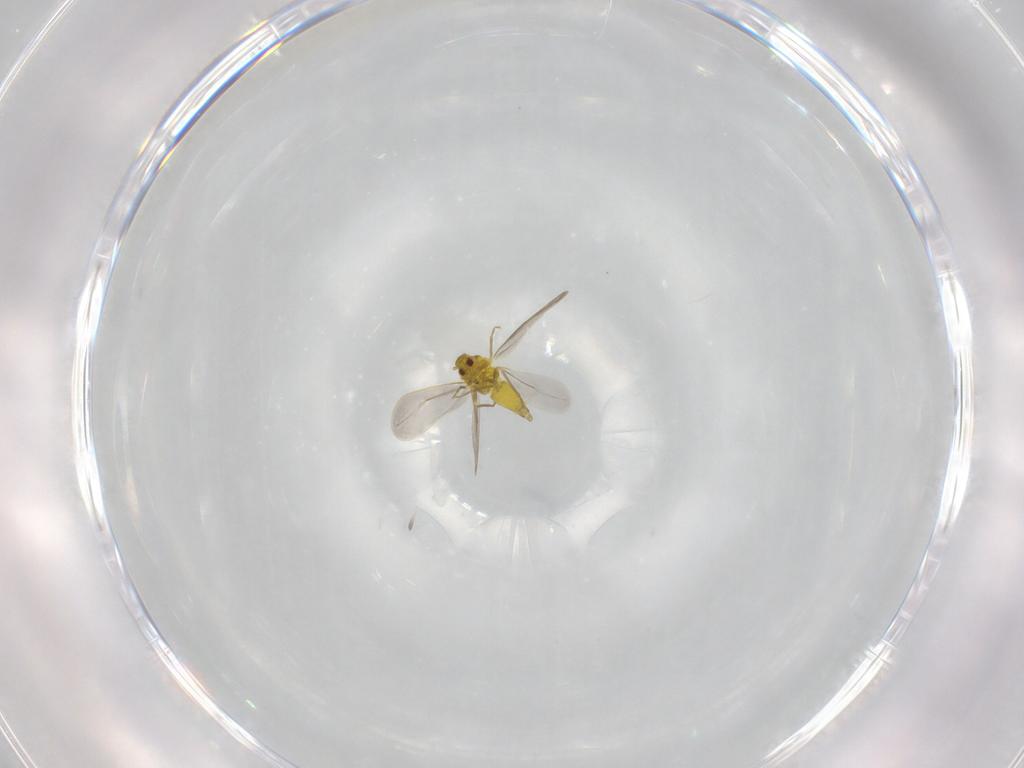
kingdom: Animalia
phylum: Arthropoda
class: Insecta
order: Hemiptera
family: Aleyrodidae
